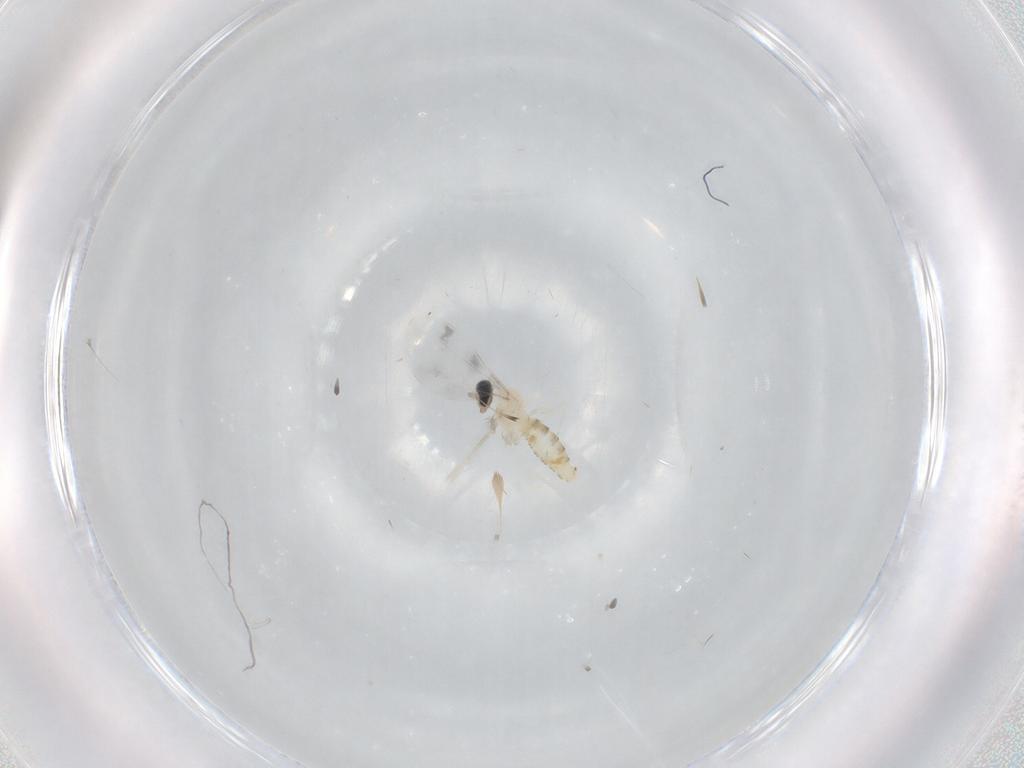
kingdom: Animalia
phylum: Arthropoda
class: Insecta
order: Diptera
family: Cecidomyiidae
